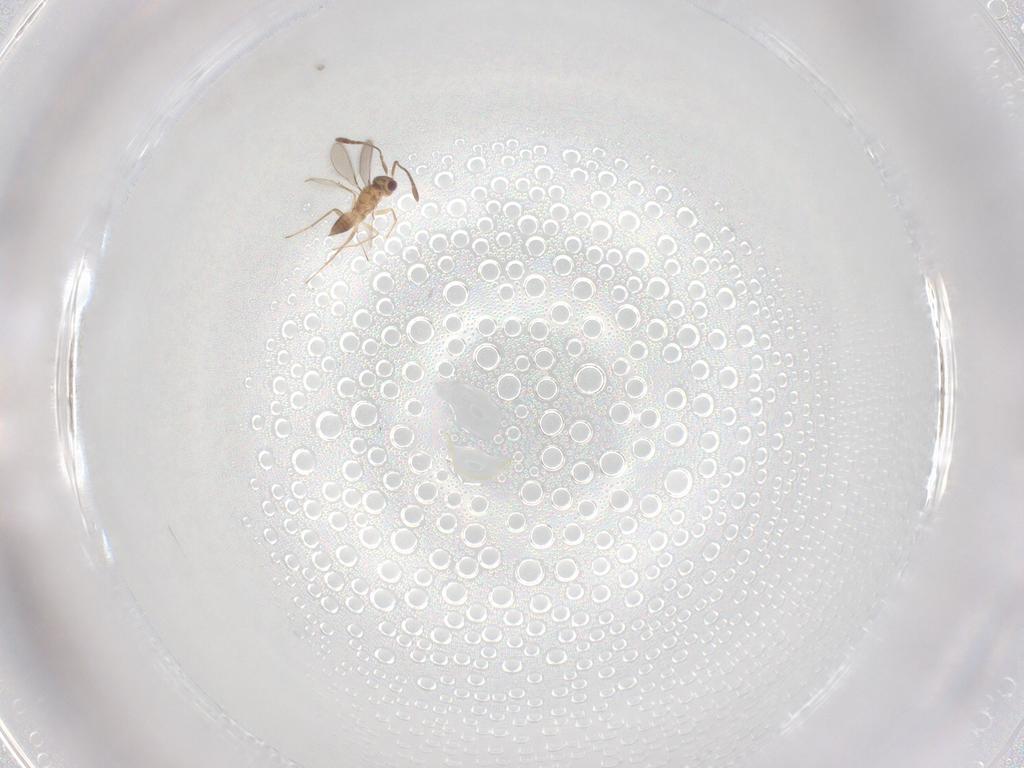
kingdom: Animalia
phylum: Arthropoda
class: Insecta
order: Hymenoptera
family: Mymaridae
